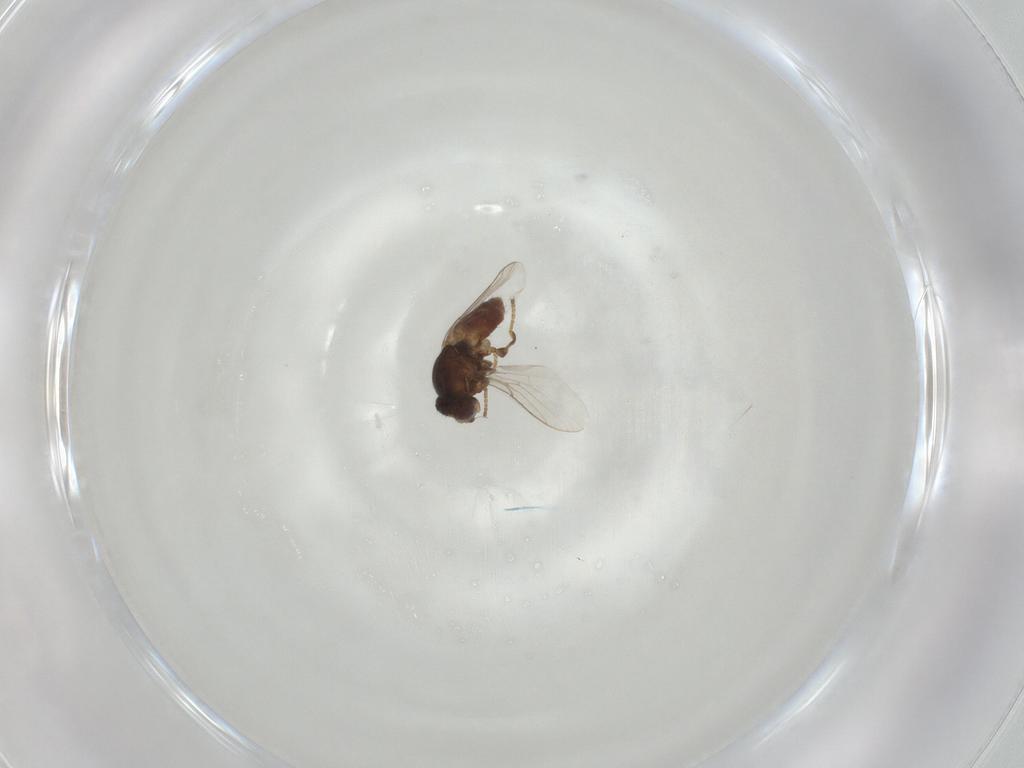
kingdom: Animalia
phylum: Arthropoda
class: Insecta
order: Diptera
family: Chloropidae
